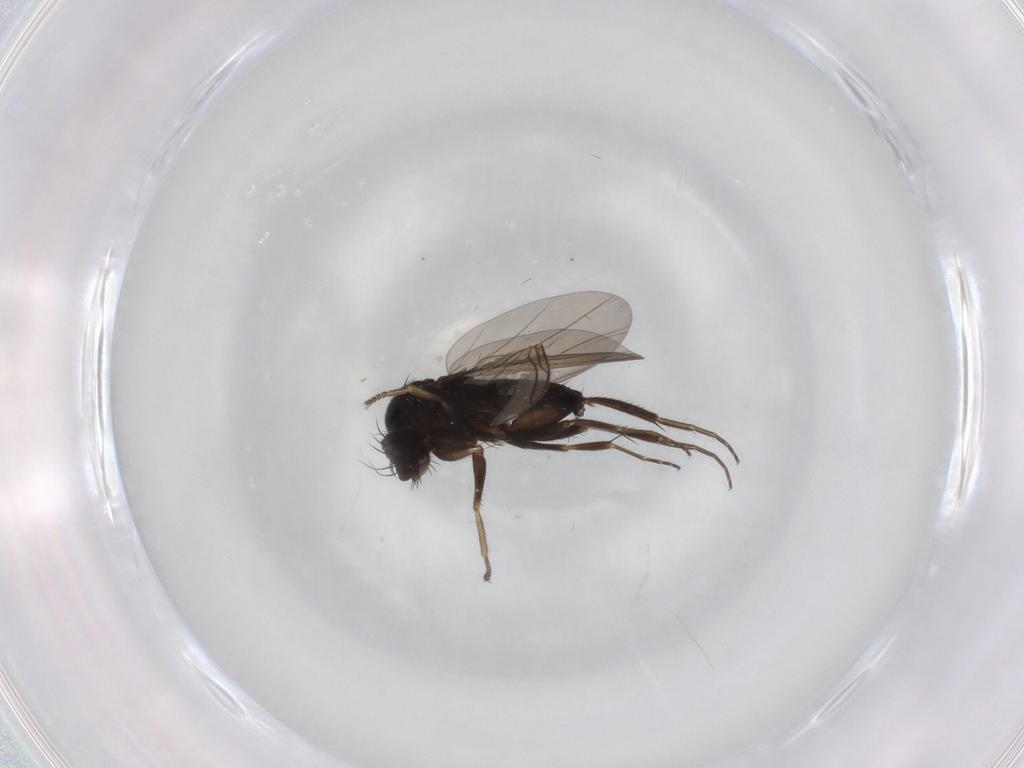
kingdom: Animalia
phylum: Arthropoda
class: Insecta
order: Diptera
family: Phoridae
